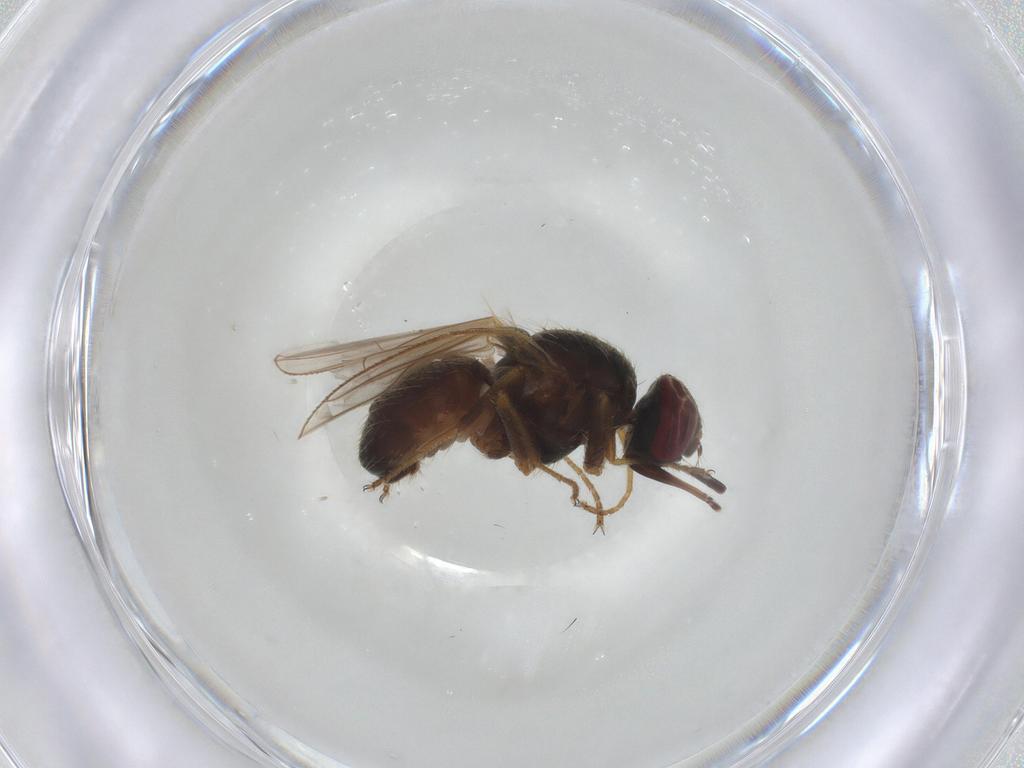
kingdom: Animalia
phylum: Arthropoda
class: Insecta
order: Diptera
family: Muscidae
